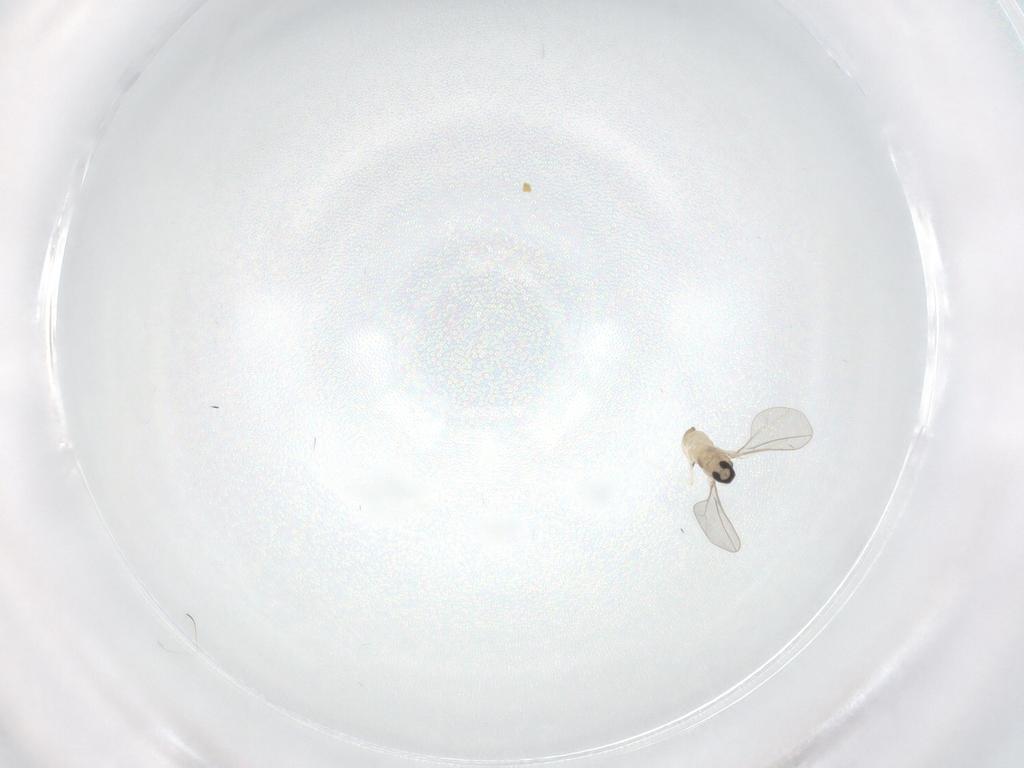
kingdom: Animalia
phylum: Arthropoda
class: Insecta
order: Diptera
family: Cecidomyiidae
